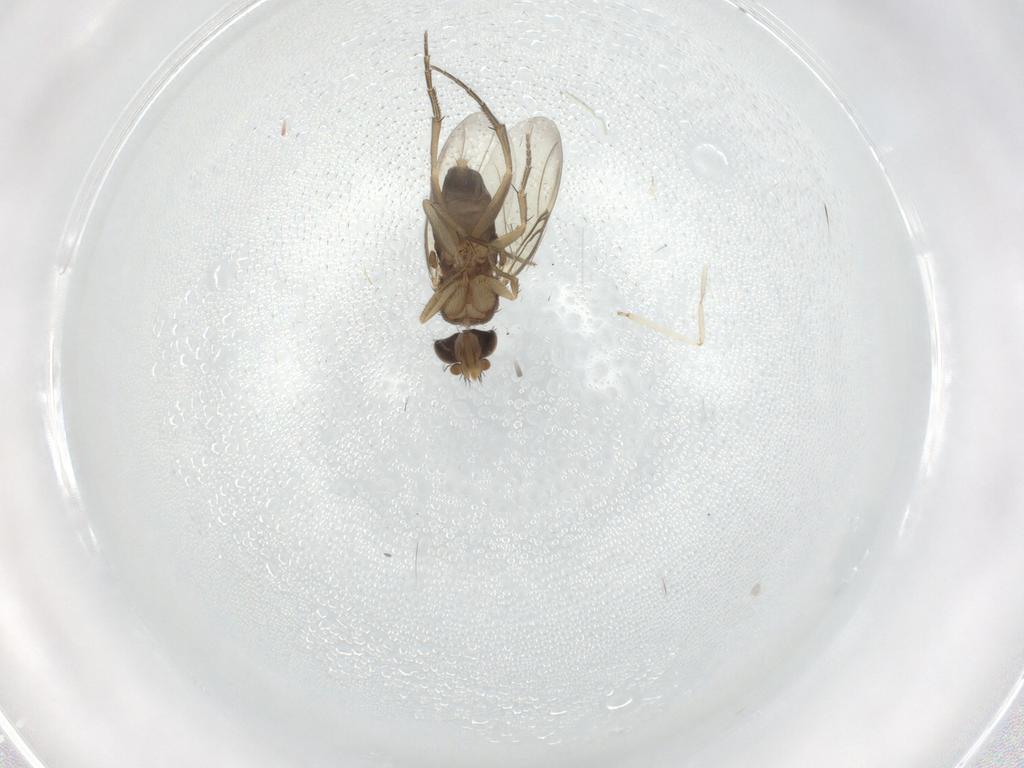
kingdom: Animalia
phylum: Arthropoda
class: Insecta
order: Diptera
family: Phoridae
